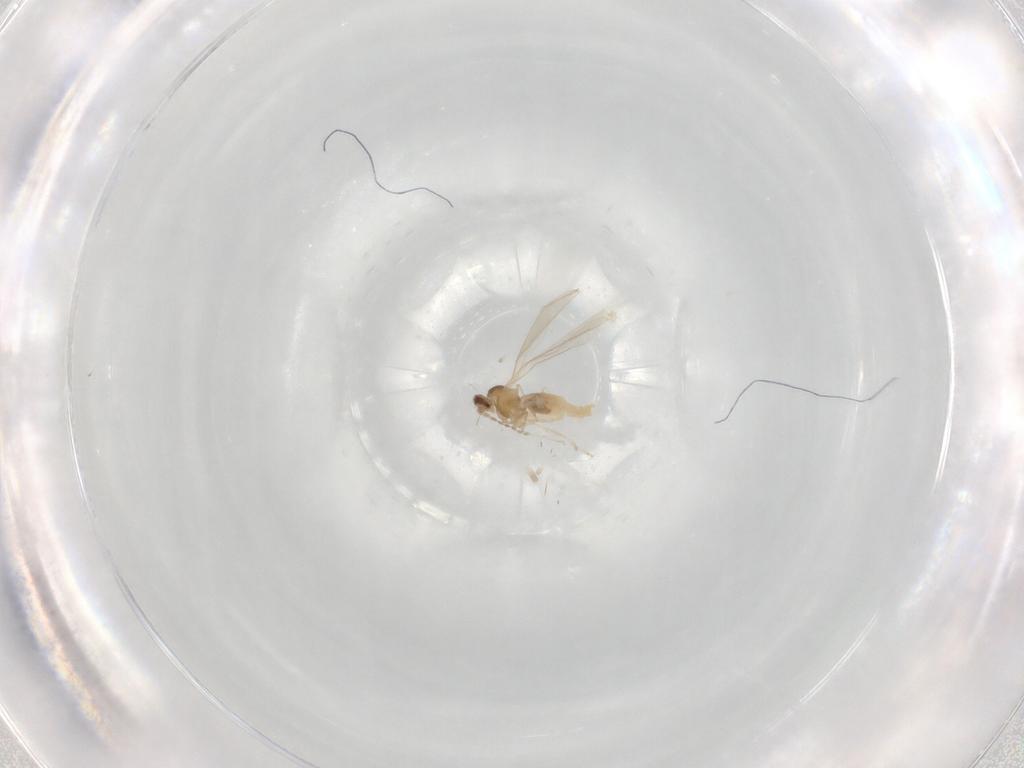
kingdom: Animalia
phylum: Arthropoda
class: Insecta
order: Diptera
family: Cecidomyiidae
